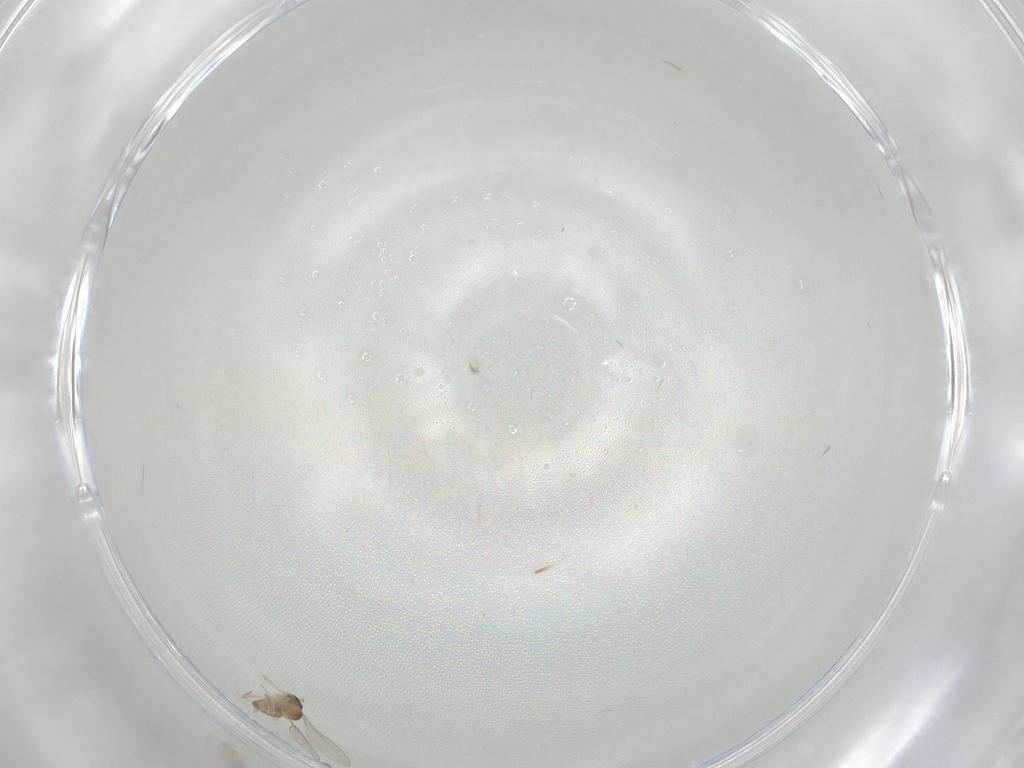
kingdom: Animalia
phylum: Arthropoda
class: Insecta
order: Diptera
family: Cecidomyiidae
